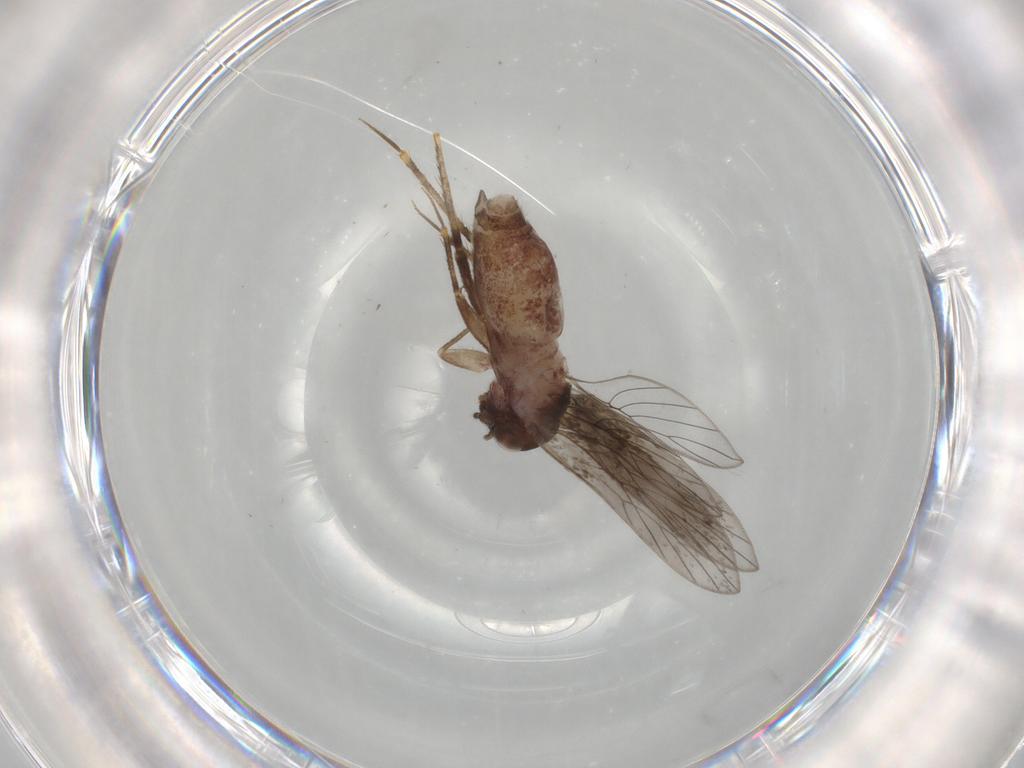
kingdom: Animalia
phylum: Arthropoda
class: Insecta
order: Psocodea
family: Lepidopsocidae
